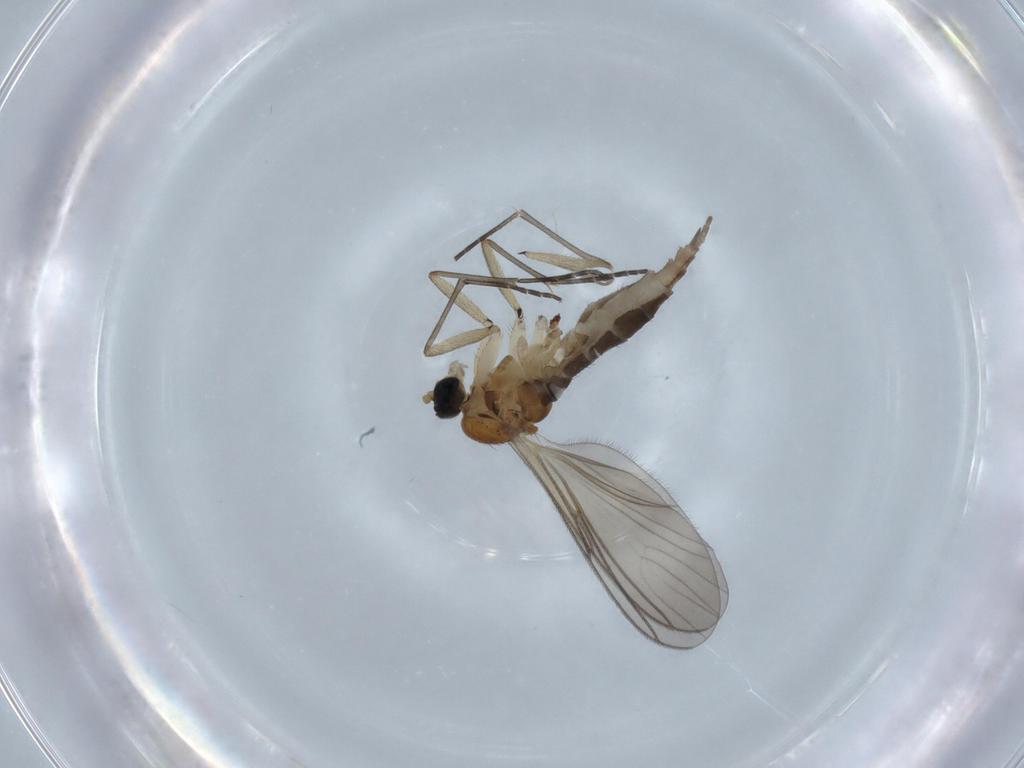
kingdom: Animalia
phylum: Arthropoda
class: Insecta
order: Diptera
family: Sciaridae
